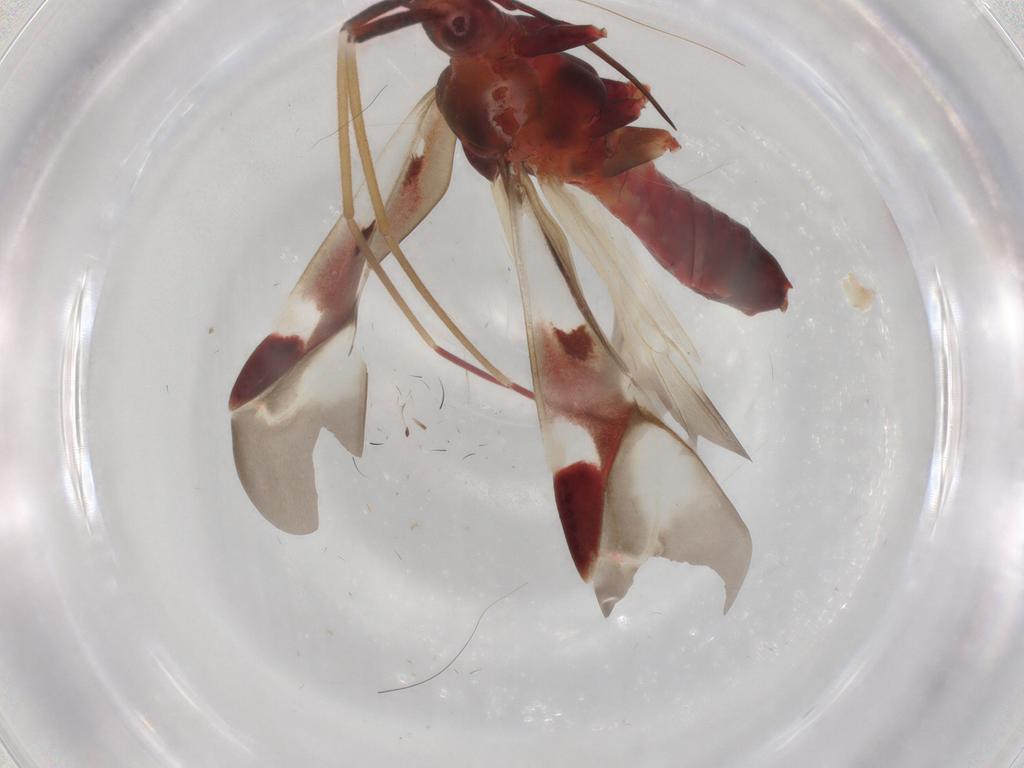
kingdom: Animalia
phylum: Arthropoda
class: Insecta
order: Hemiptera
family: Miridae
